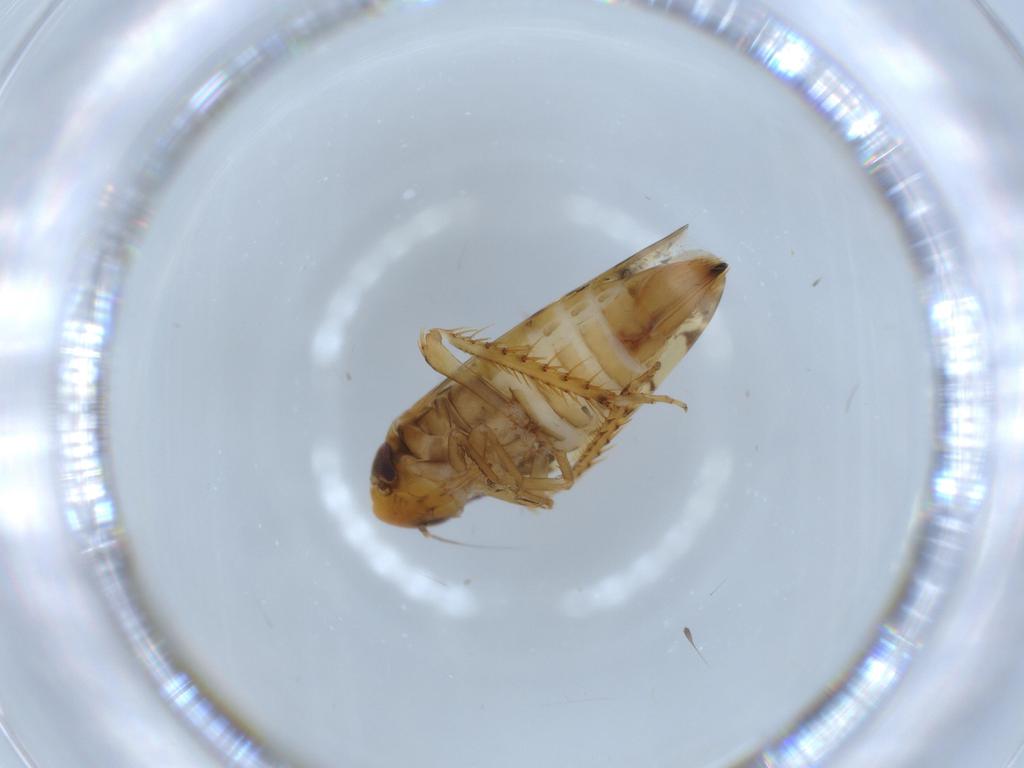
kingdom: Animalia
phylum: Arthropoda
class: Insecta
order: Hemiptera
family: Cicadellidae
